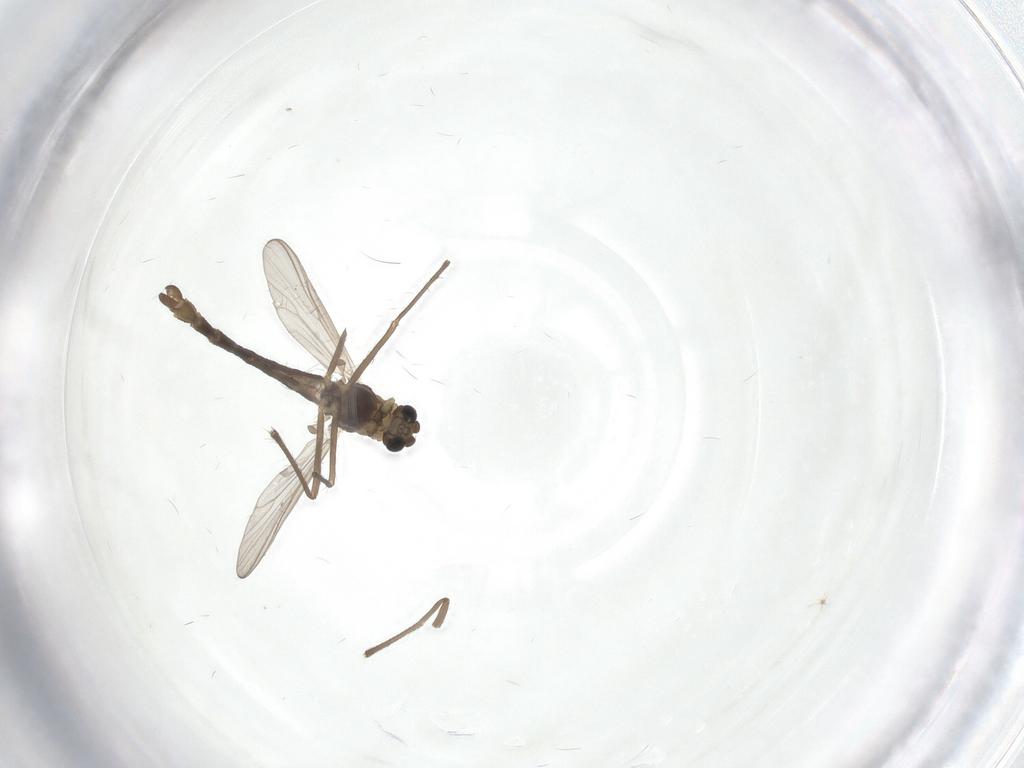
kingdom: Animalia
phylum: Arthropoda
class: Insecta
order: Diptera
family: Chironomidae
